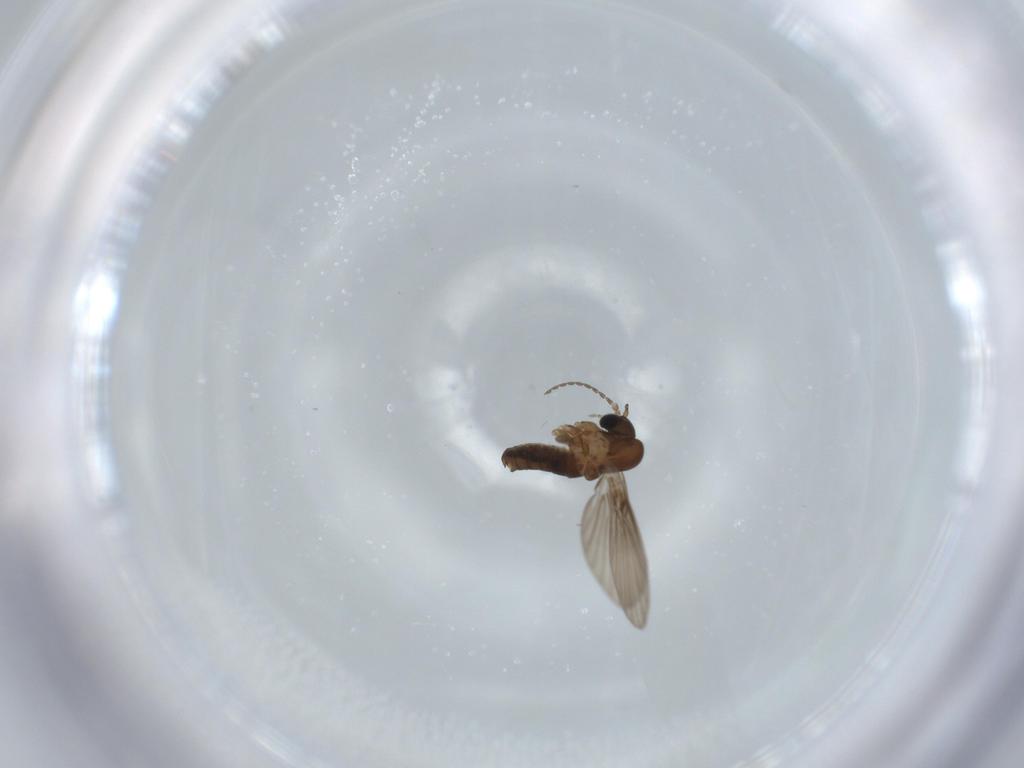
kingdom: Animalia
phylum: Arthropoda
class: Insecta
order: Diptera
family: Psychodidae
